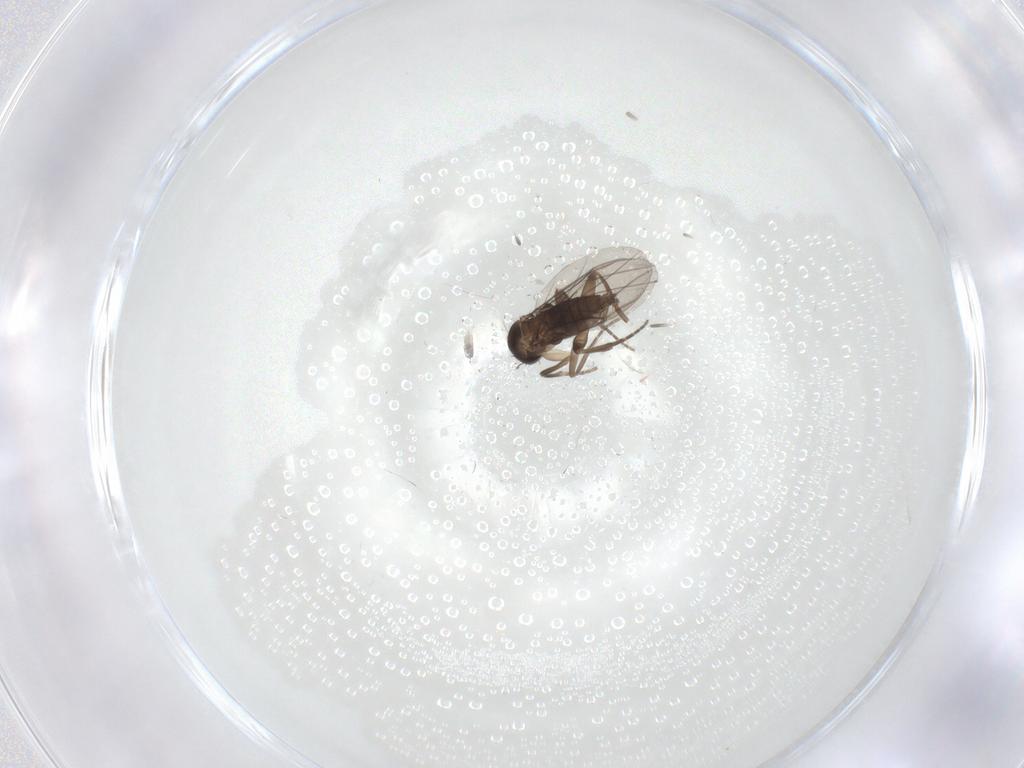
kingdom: Animalia
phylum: Arthropoda
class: Insecta
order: Diptera
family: Phoridae
